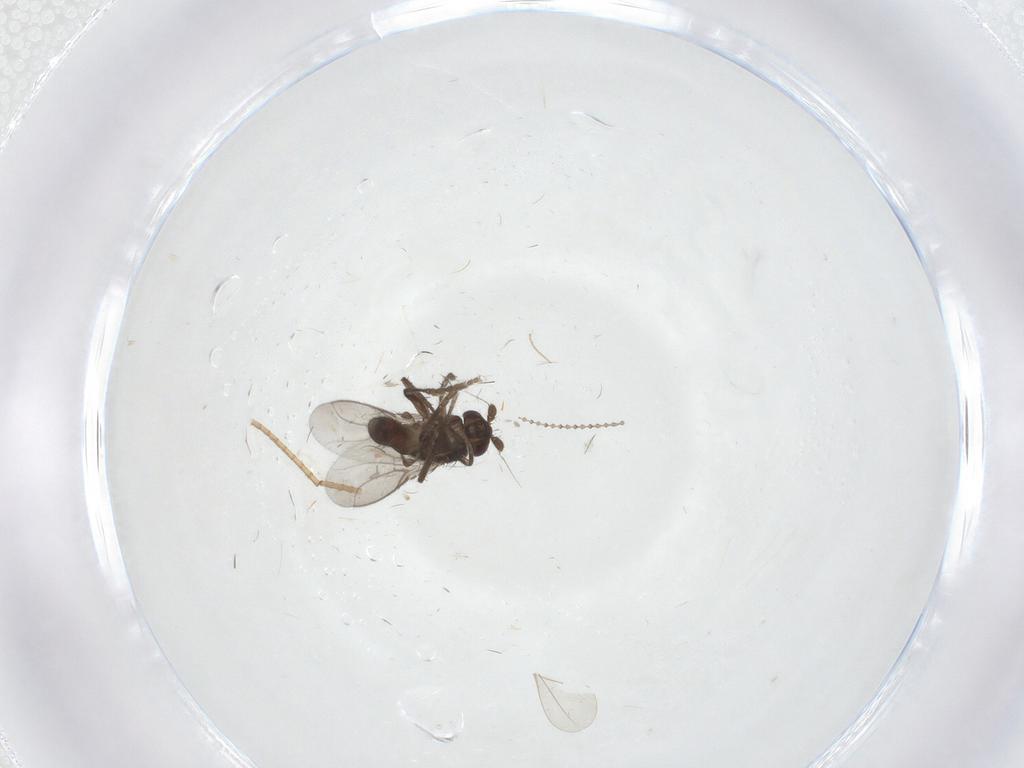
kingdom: Animalia
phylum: Arthropoda
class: Insecta
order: Diptera
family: Cecidomyiidae
